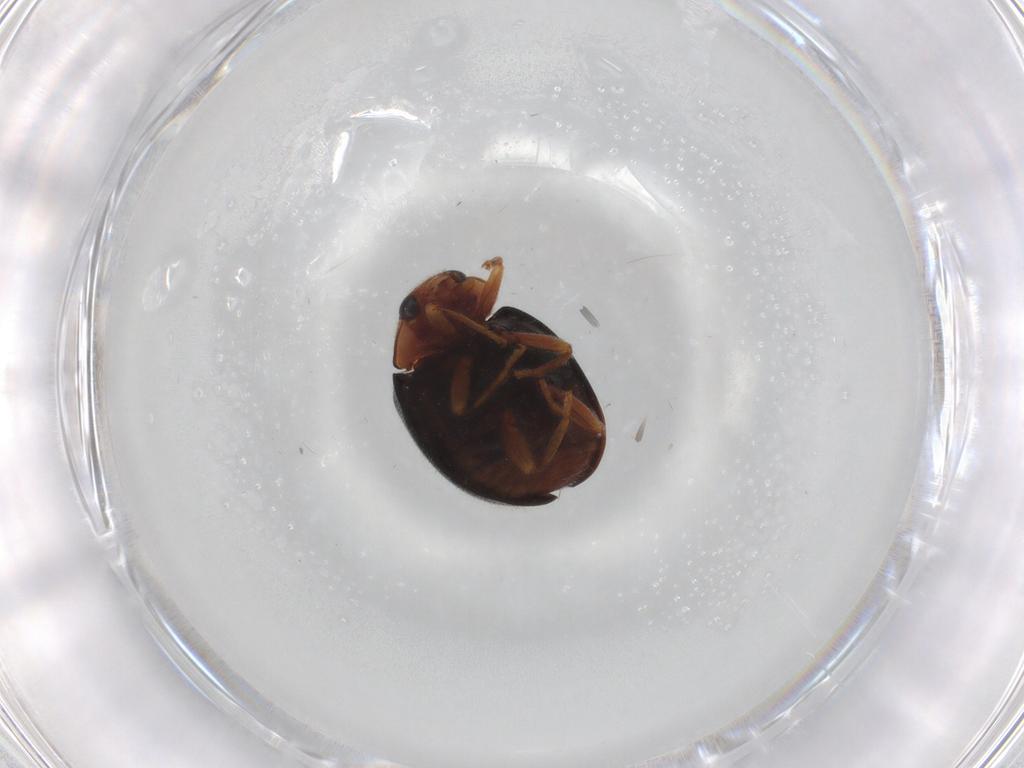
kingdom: Animalia
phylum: Arthropoda
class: Insecta
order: Coleoptera
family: Coccinellidae
